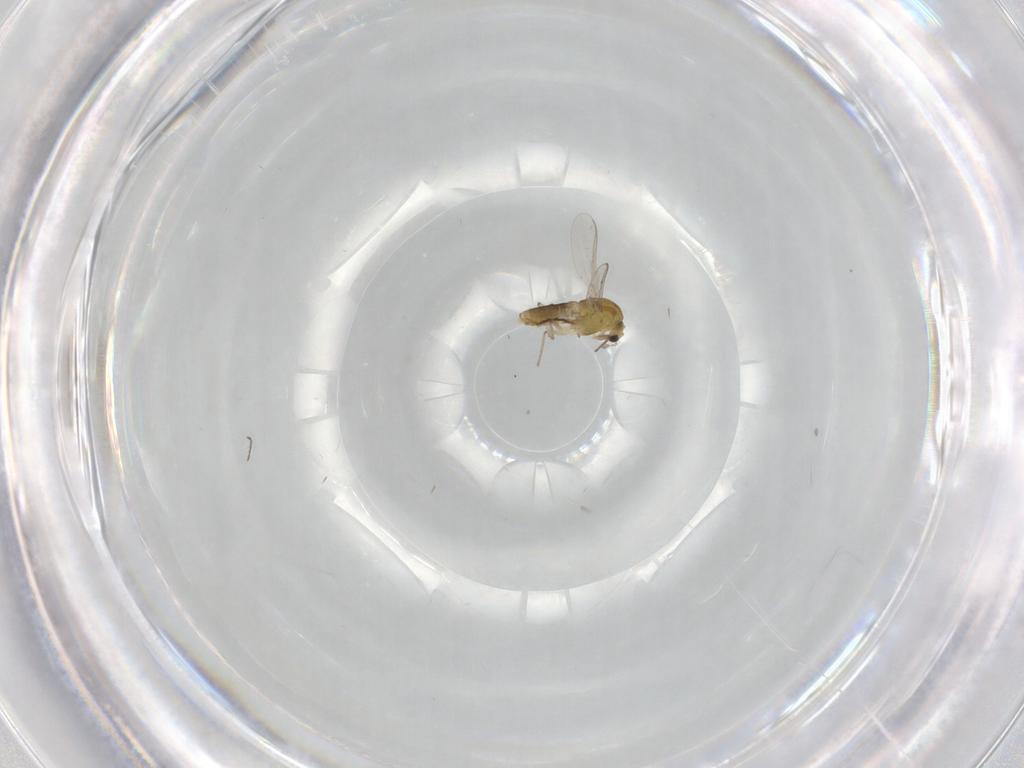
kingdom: Animalia
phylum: Arthropoda
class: Insecta
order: Diptera
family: Chironomidae
